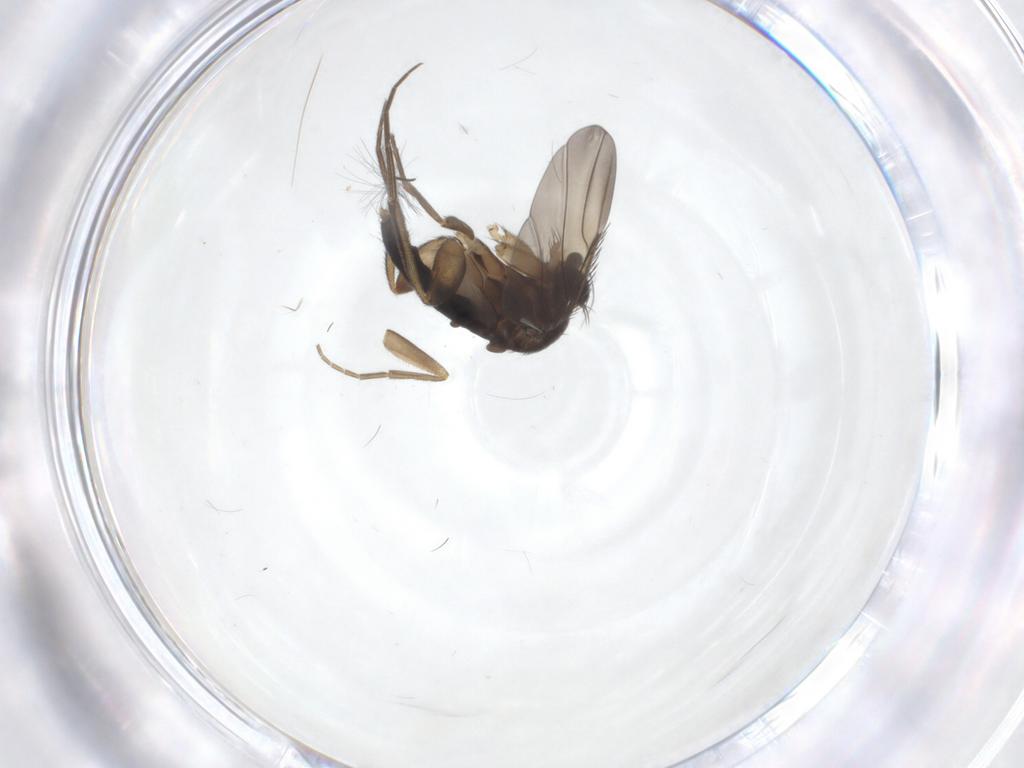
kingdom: Animalia
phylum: Arthropoda
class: Insecta
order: Diptera
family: Phoridae
